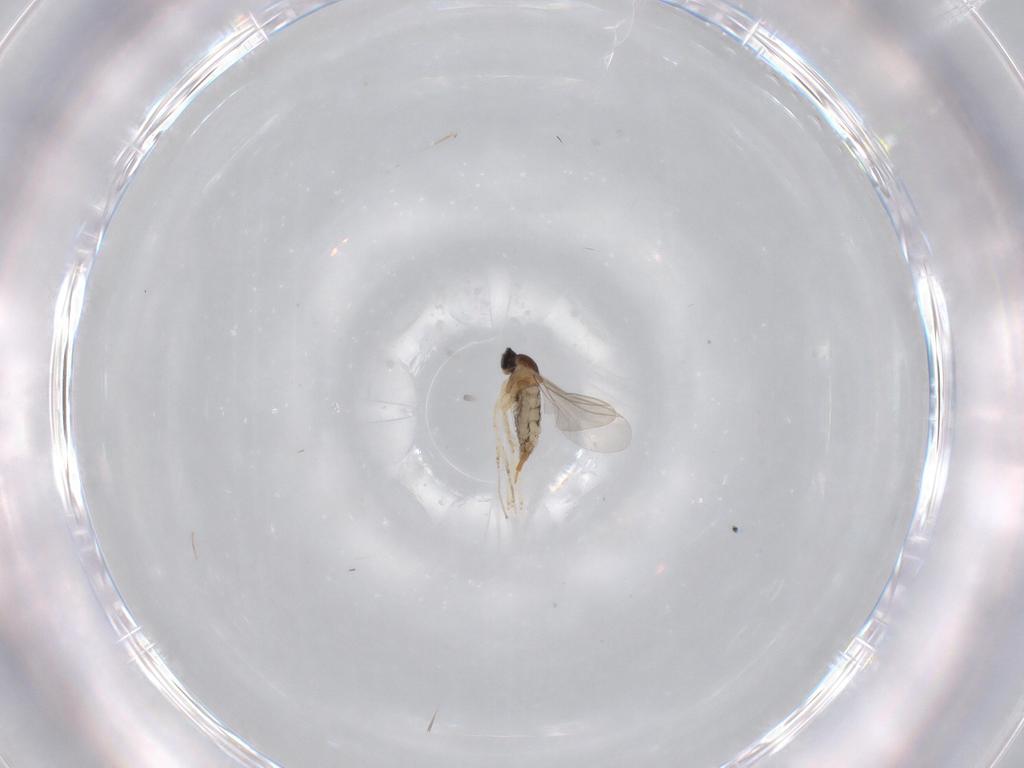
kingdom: Animalia
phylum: Arthropoda
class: Insecta
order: Diptera
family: Cecidomyiidae
